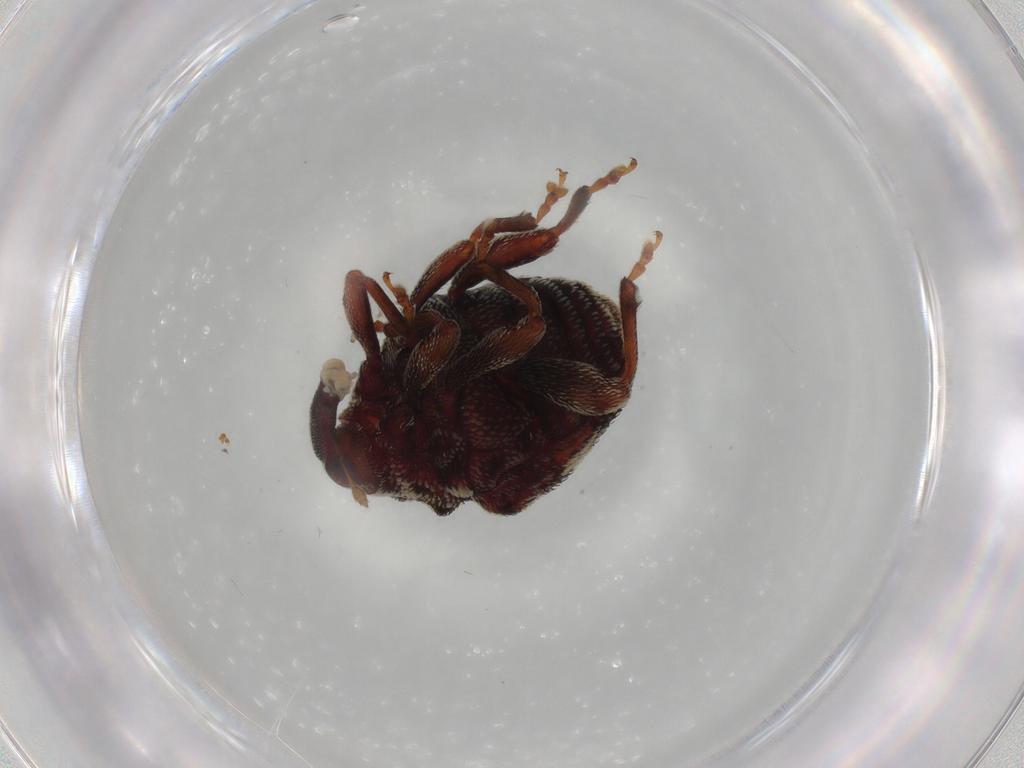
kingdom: Animalia
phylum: Arthropoda
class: Insecta
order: Coleoptera
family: Curculionidae
